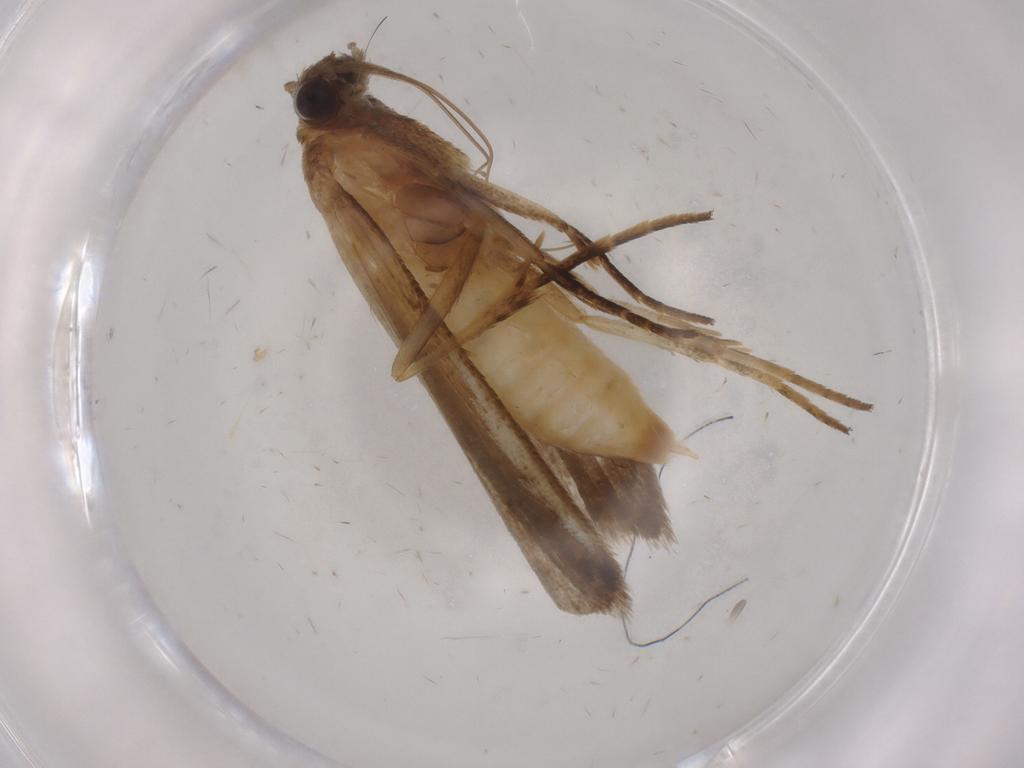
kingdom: Animalia
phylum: Arthropoda
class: Insecta
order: Lepidoptera
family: Noctuidae
